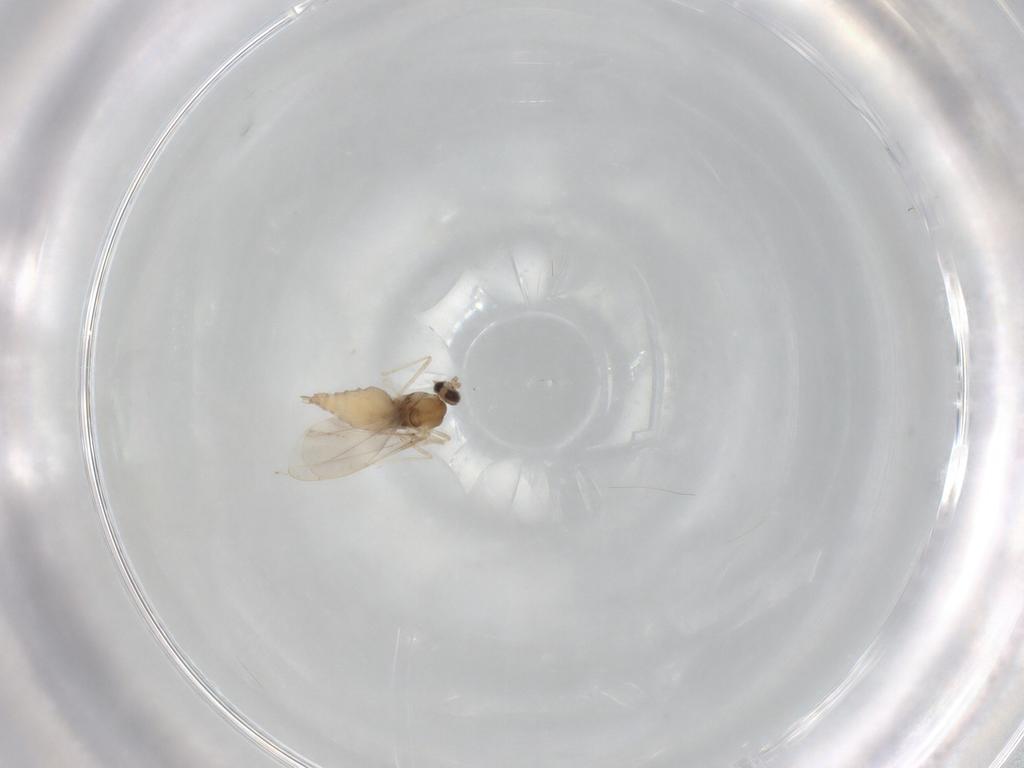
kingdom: Animalia
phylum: Arthropoda
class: Insecta
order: Diptera
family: Cecidomyiidae
